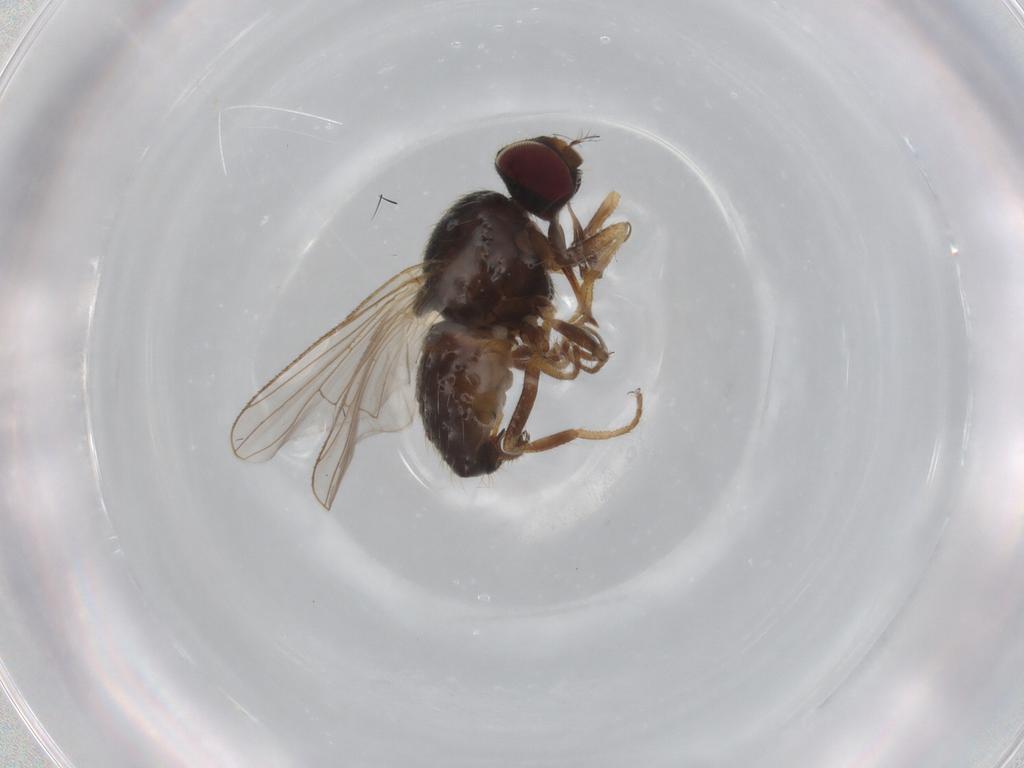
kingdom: Animalia
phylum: Arthropoda
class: Insecta
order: Diptera
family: Muscidae
